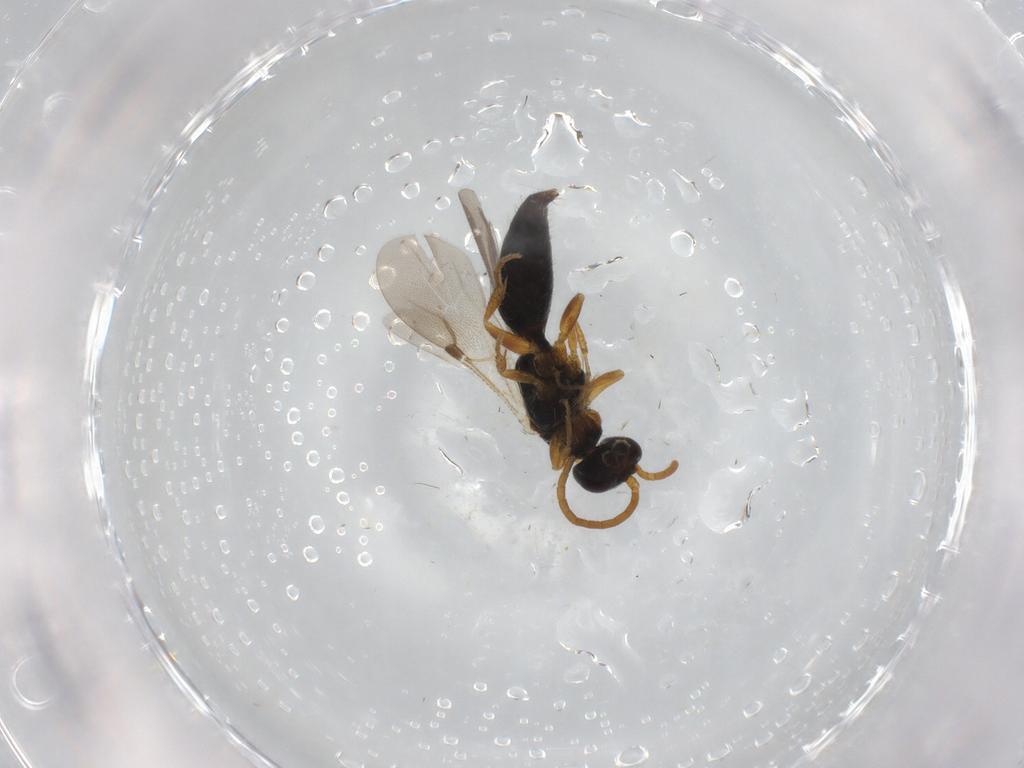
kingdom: Animalia
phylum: Arthropoda
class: Insecta
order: Hymenoptera
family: Bethylidae
